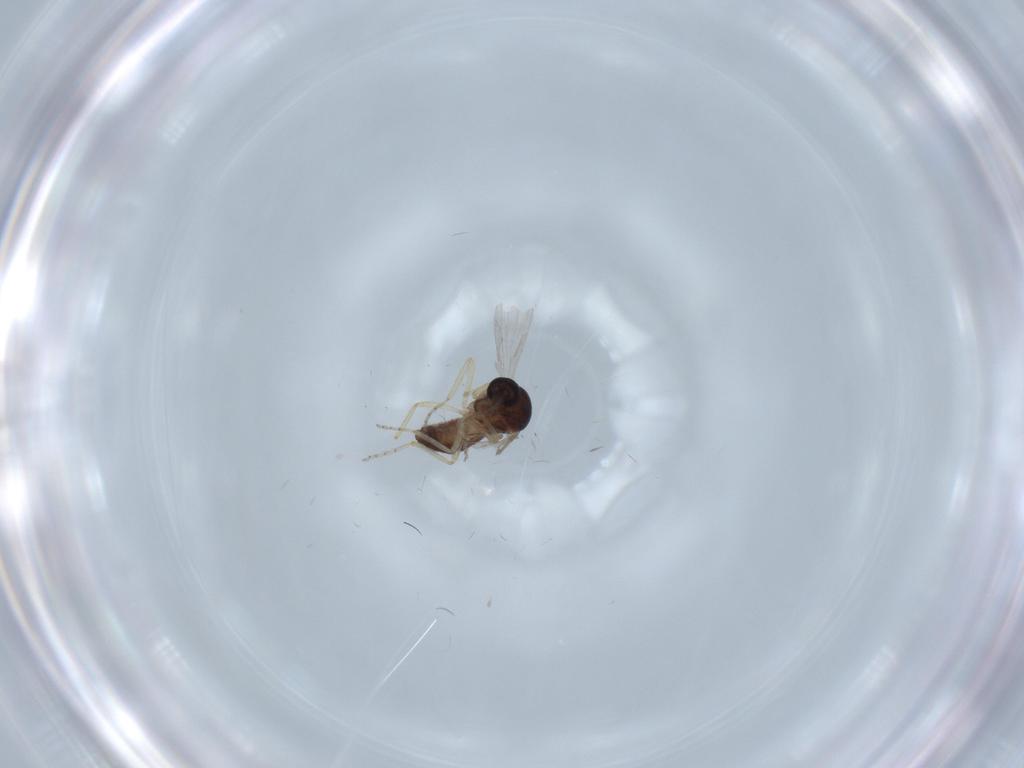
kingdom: Animalia
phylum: Arthropoda
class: Insecta
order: Diptera
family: Ceratopogonidae
